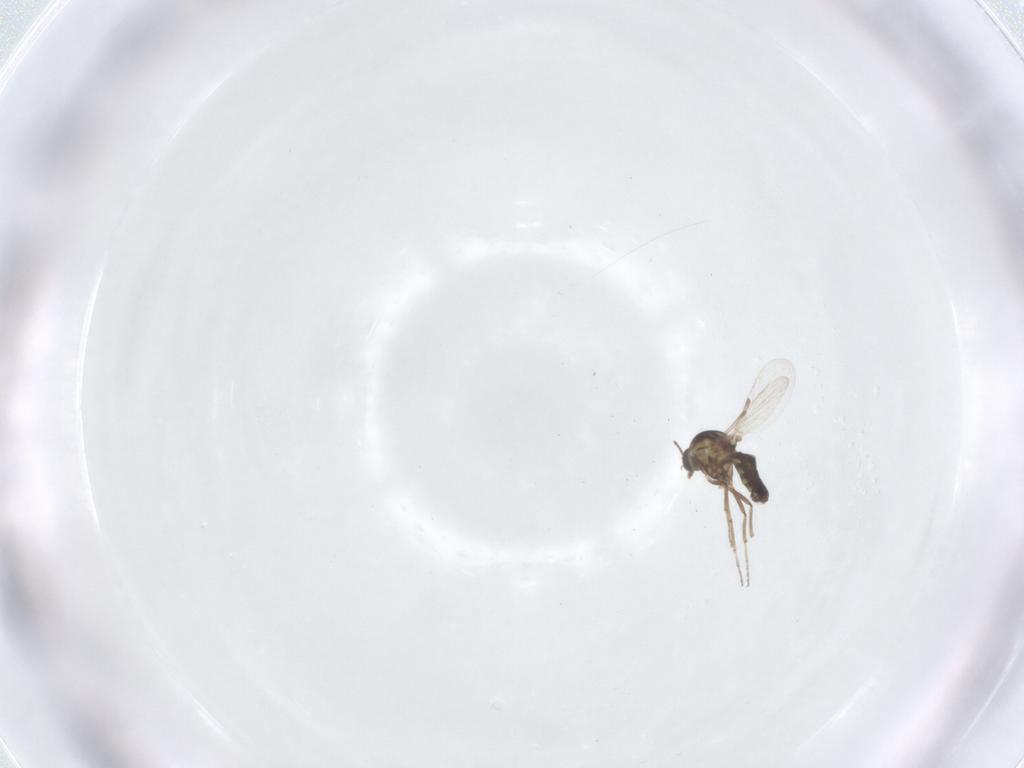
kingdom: Animalia
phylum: Arthropoda
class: Insecta
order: Diptera
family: Ceratopogonidae
